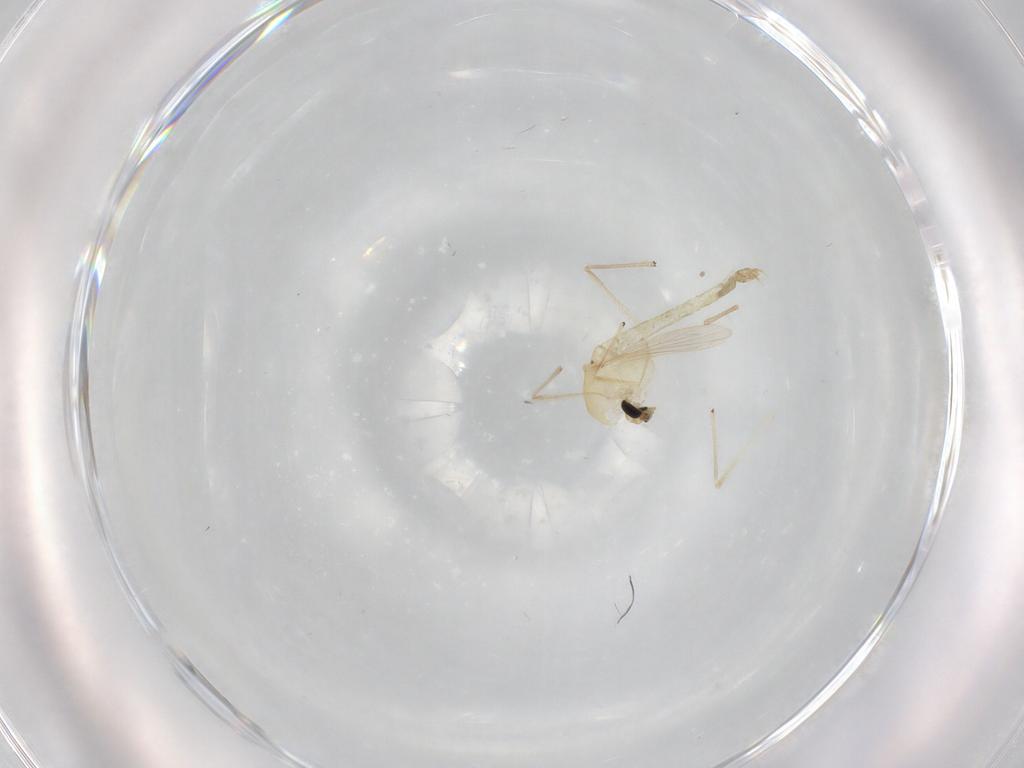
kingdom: Animalia
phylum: Arthropoda
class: Insecta
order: Diptera
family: Chironomidae
